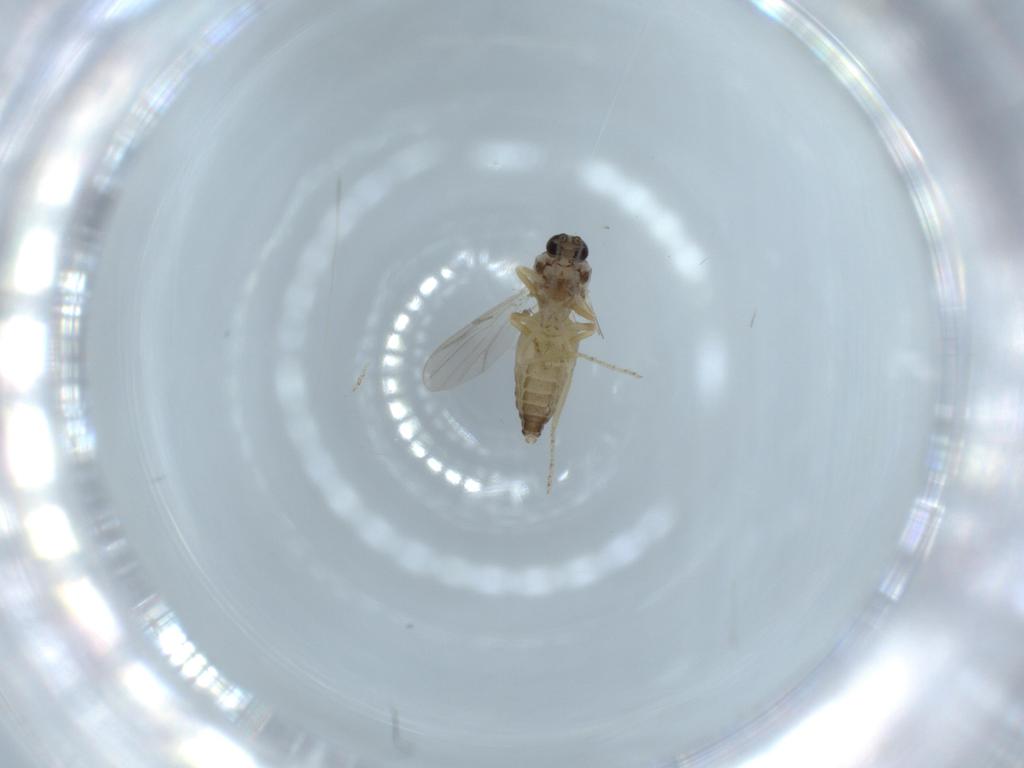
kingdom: Animalia
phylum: Arthropoda
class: Insecta
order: Diptera
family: Ceratopogonidae
